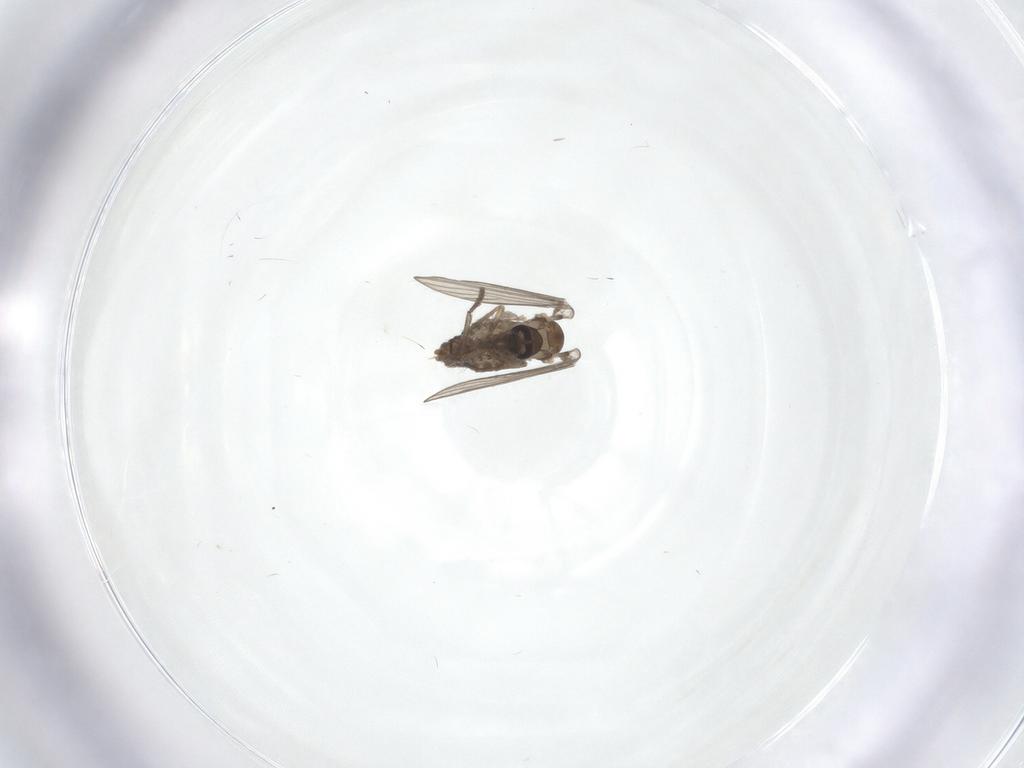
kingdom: Animalia
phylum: Arthropoda
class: Insecta
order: Diptera
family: Psychodidae
